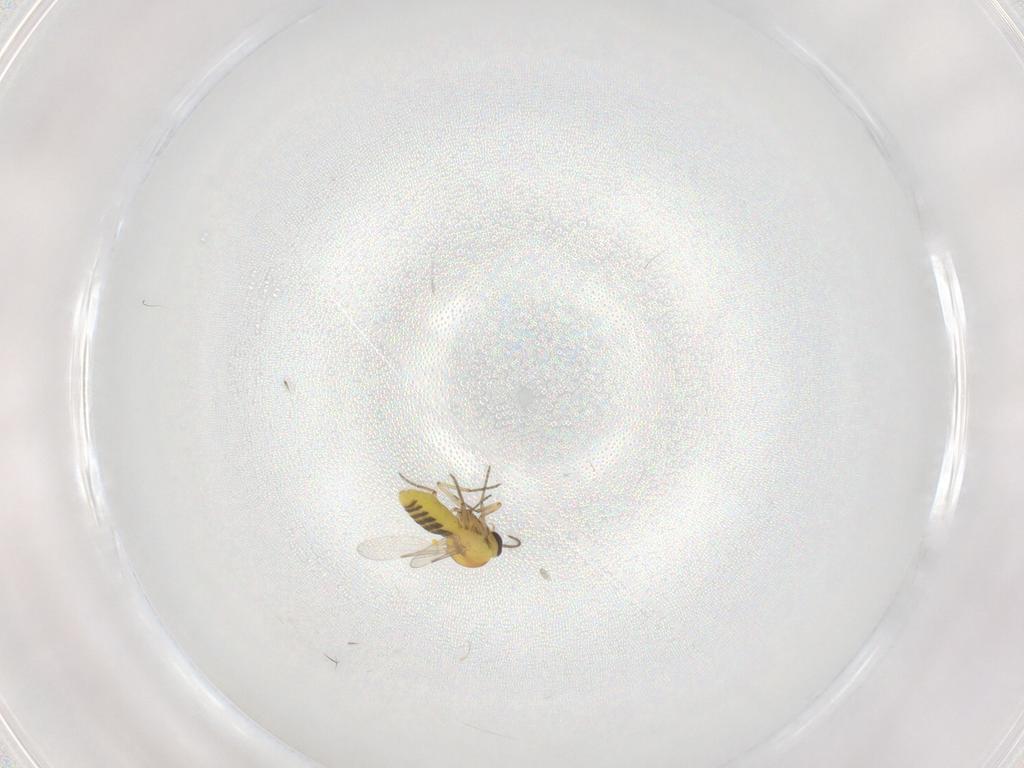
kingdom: Animalia
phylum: Arthropoda
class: Insecta
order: Diptera
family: Ceratopogonidae
